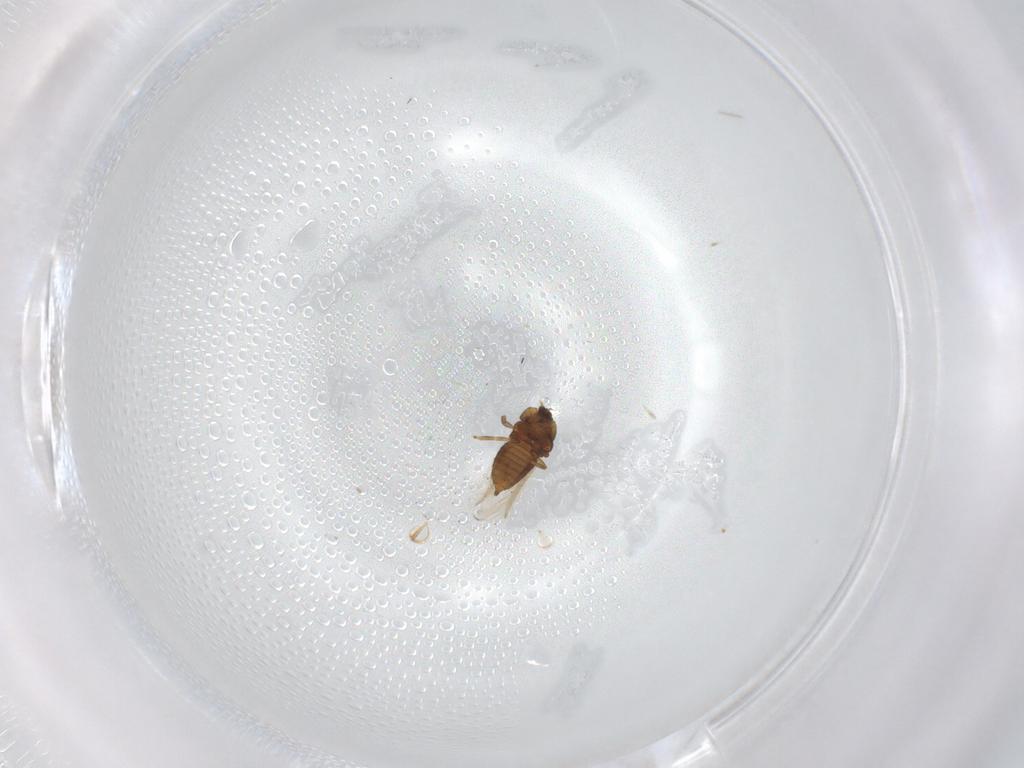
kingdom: Animalia
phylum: Arthropoda
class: Insecta
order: Thysanoptera
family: Thripidae
